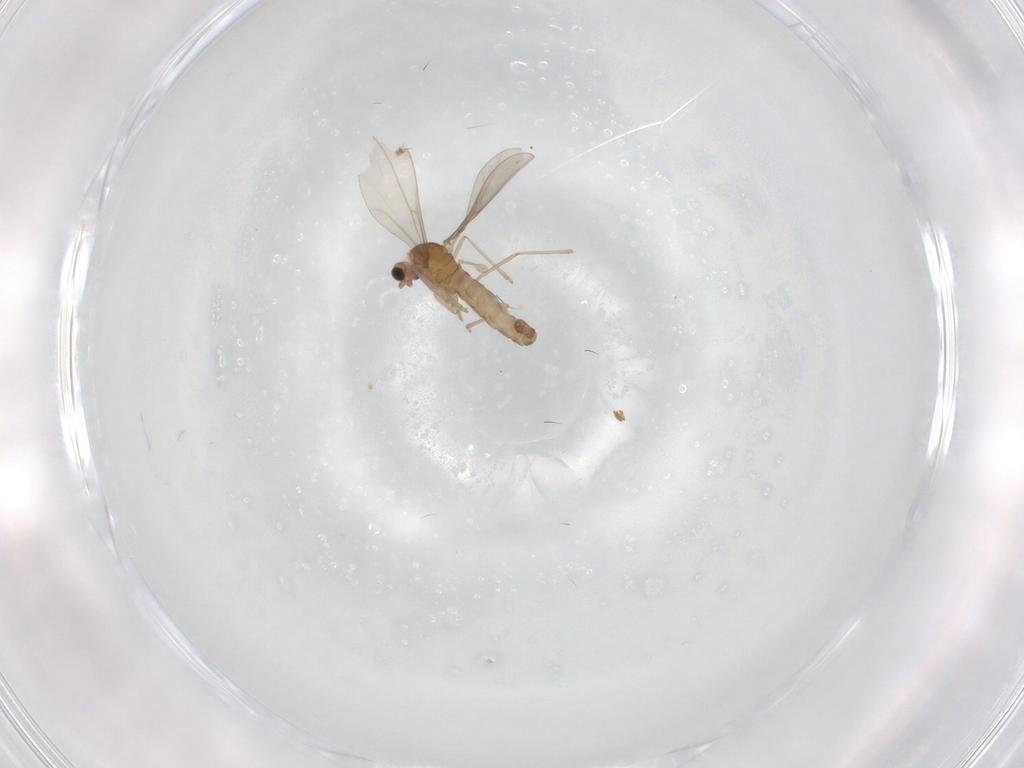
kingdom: Animalia
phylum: Arthropoda
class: Insecta
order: Diptera
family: Cecidomyiidae
